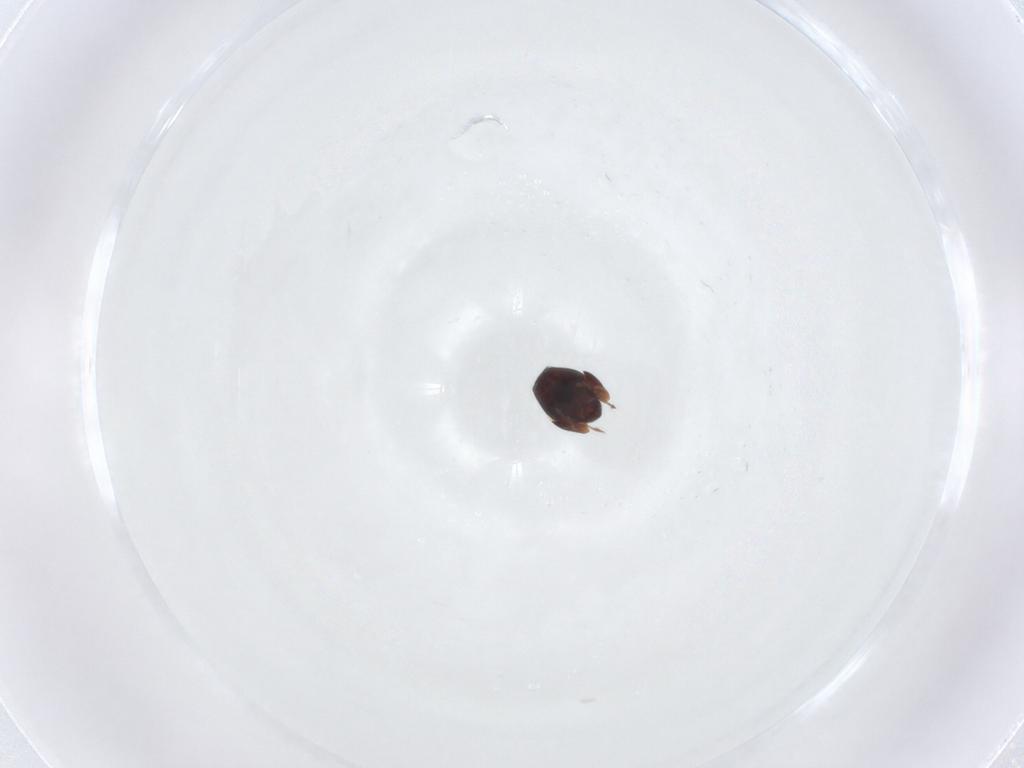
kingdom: Animalia
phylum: Arthropoda
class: Arachnida
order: Sarcoptiformes
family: Galumnidae
